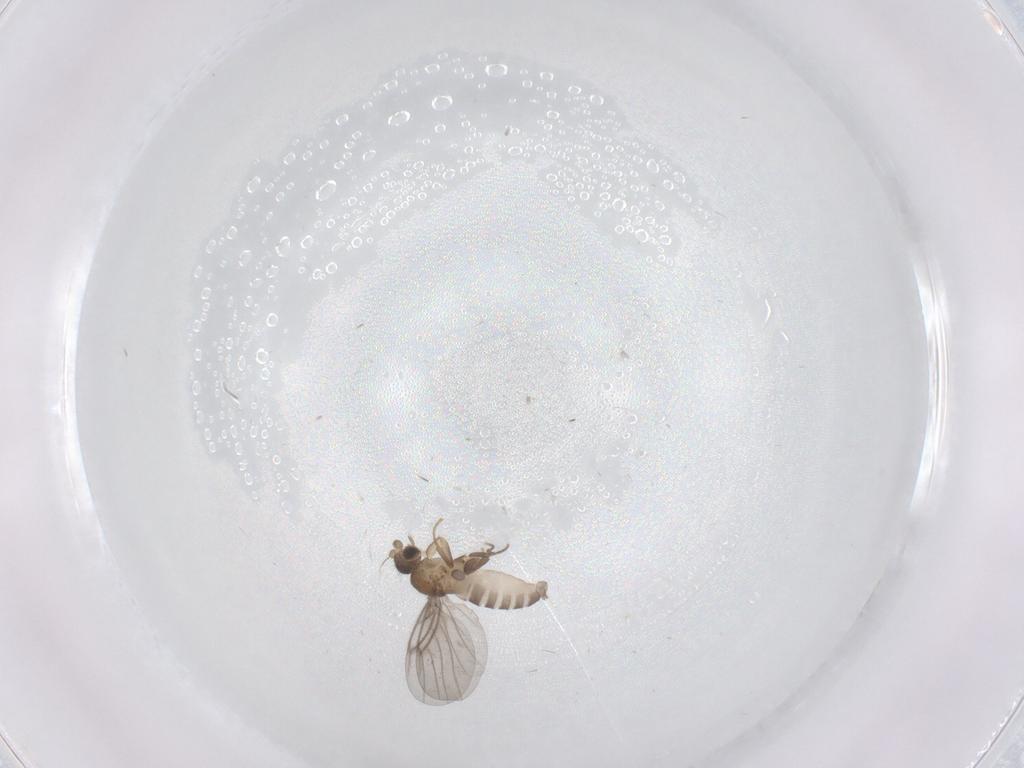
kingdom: Animalia
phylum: Arthropoda
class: Insecta
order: Diptera
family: Chironomidae
